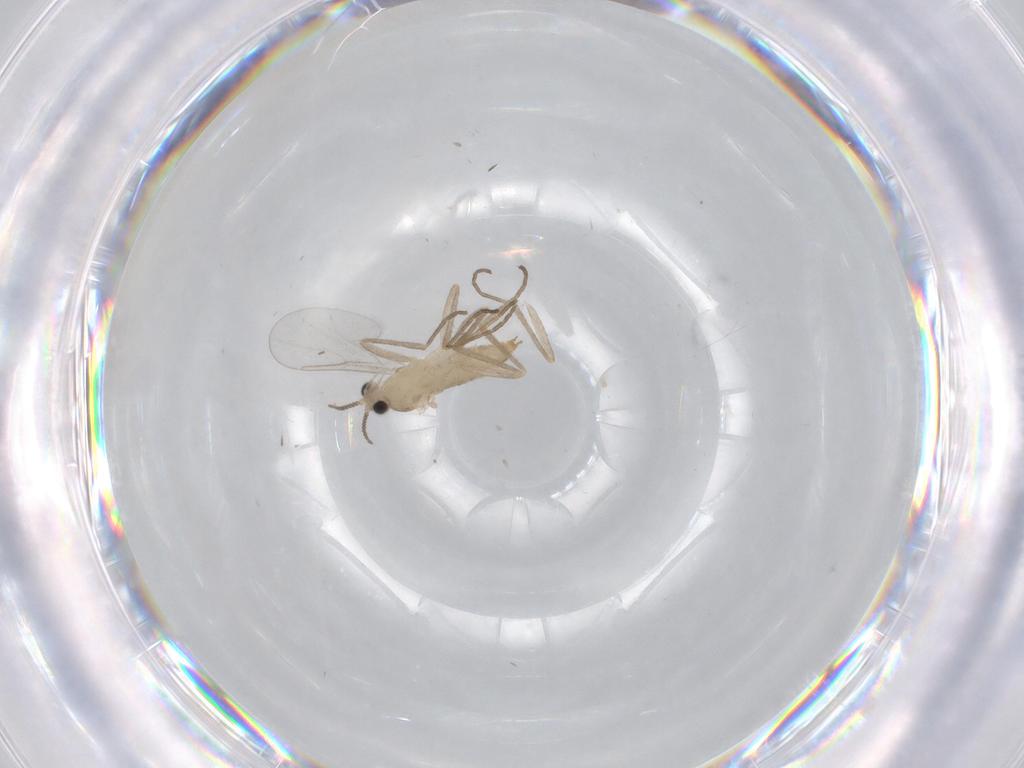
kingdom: Animalia
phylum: Arthropoda
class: Insecta
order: Diptera
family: Cecidomyiidae
